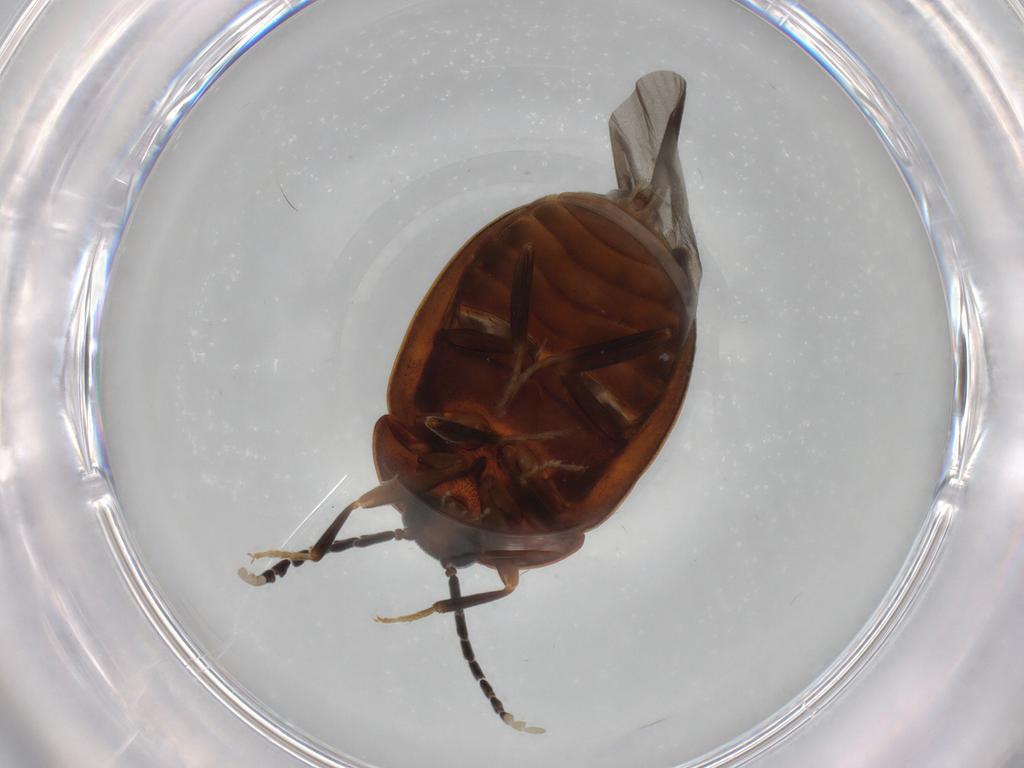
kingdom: Animalia
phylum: Arthropoda
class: Insecta
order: Coleoptera
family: Psephenidae
